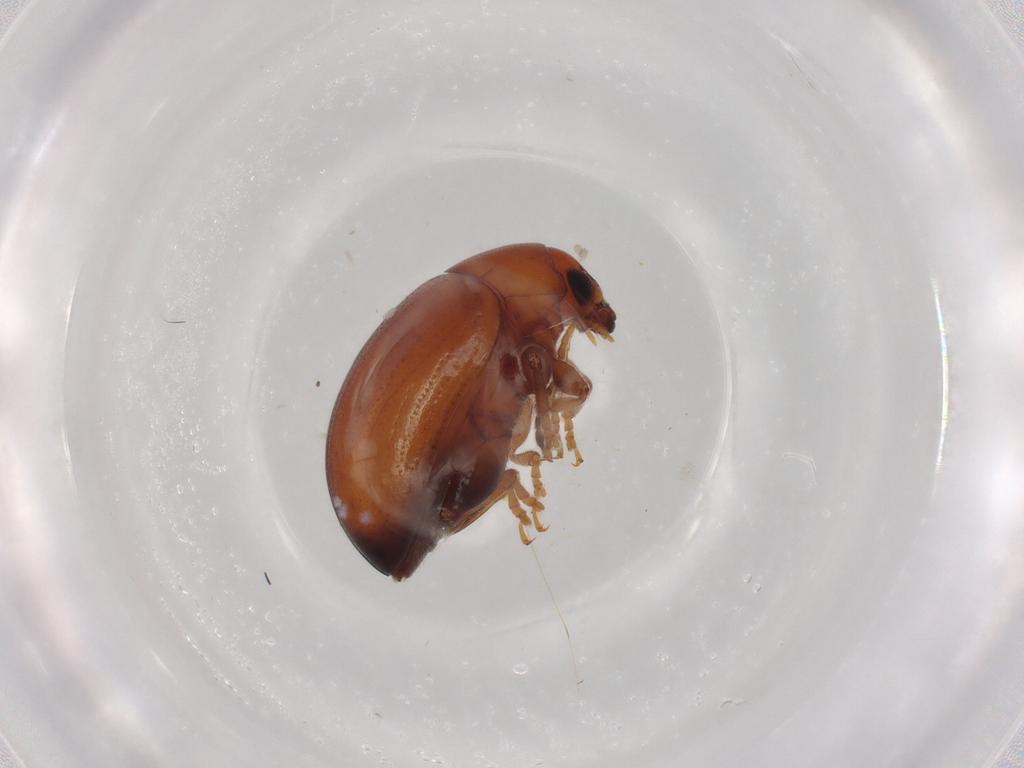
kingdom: Animalia
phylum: Arthropoda
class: Insecta
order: Coleoptera
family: Chrysomelidae
